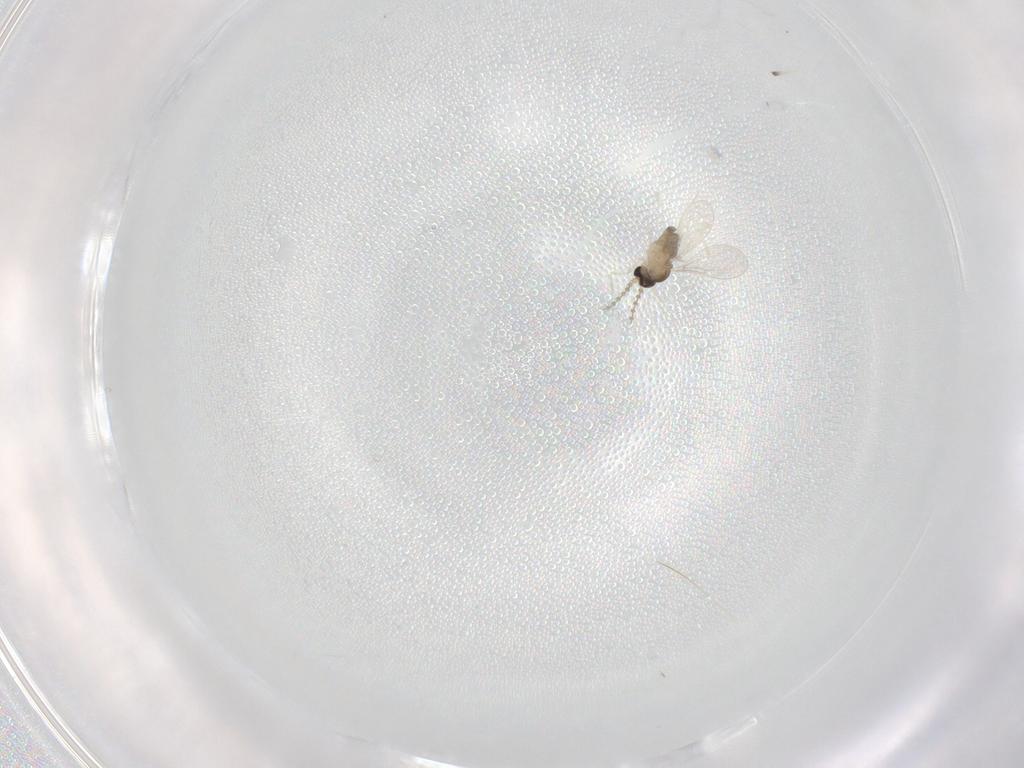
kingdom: Animalia
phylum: Arthropoda
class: Insecta
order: Diptera
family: Cecidomyiidae
